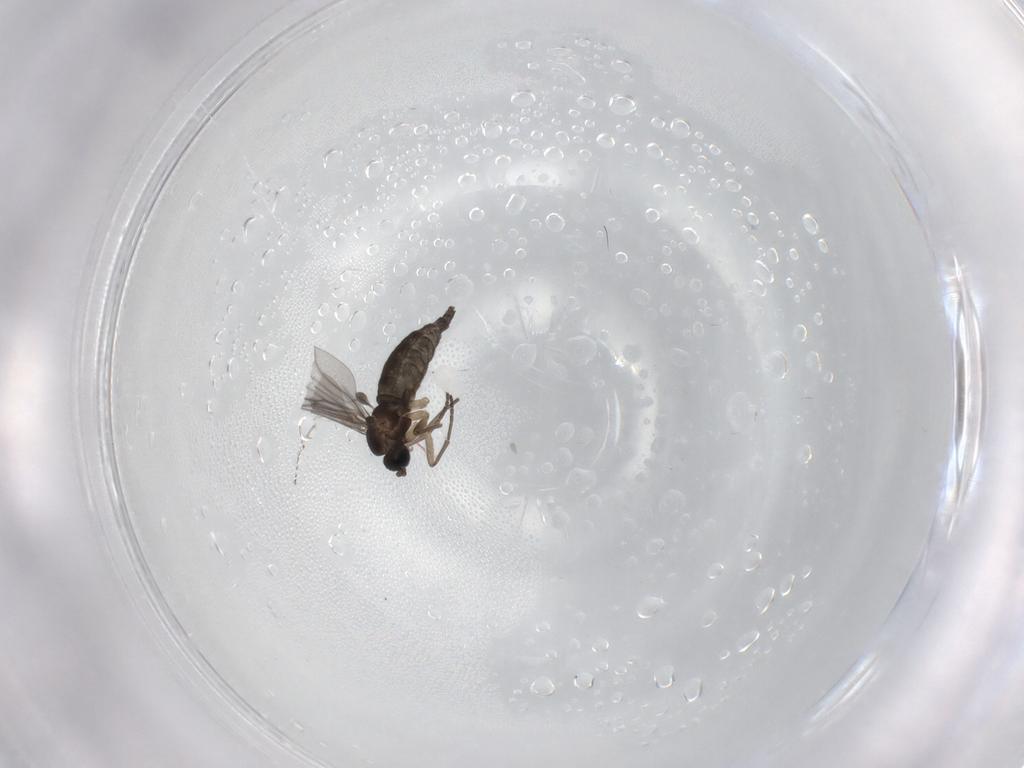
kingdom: Animalia
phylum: Arthropoda
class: Insecta
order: Diptera
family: Sciaridae
